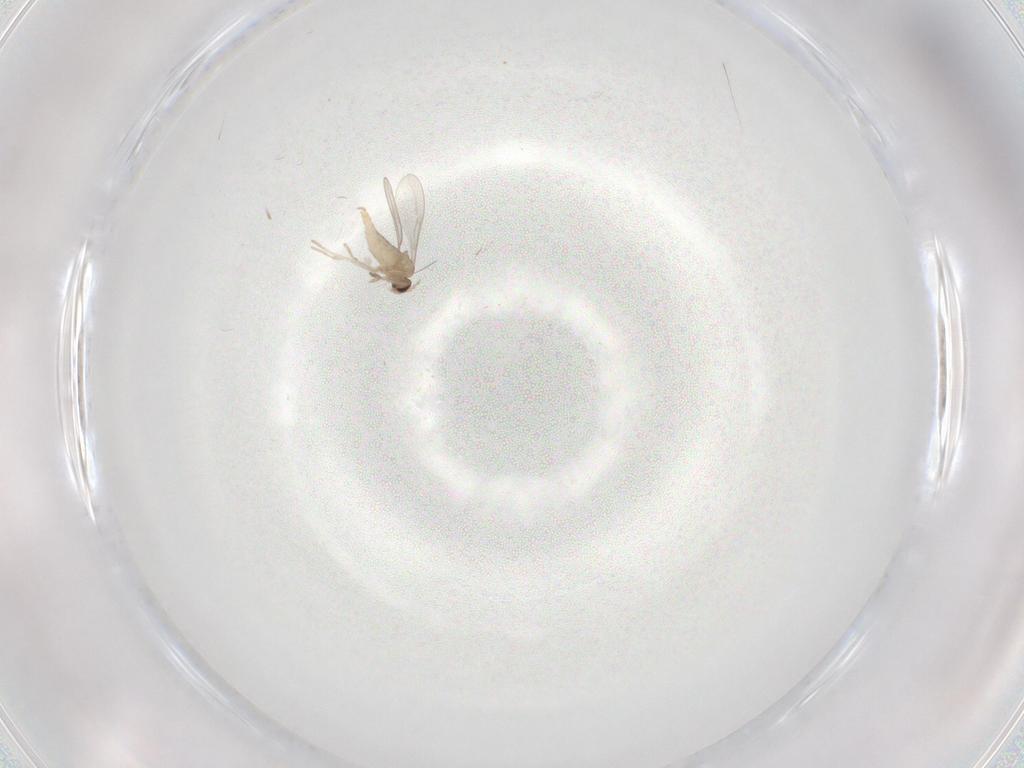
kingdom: Animalia
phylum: Arthropoda
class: Insecta
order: Diptera
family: Cecidomyiidae
